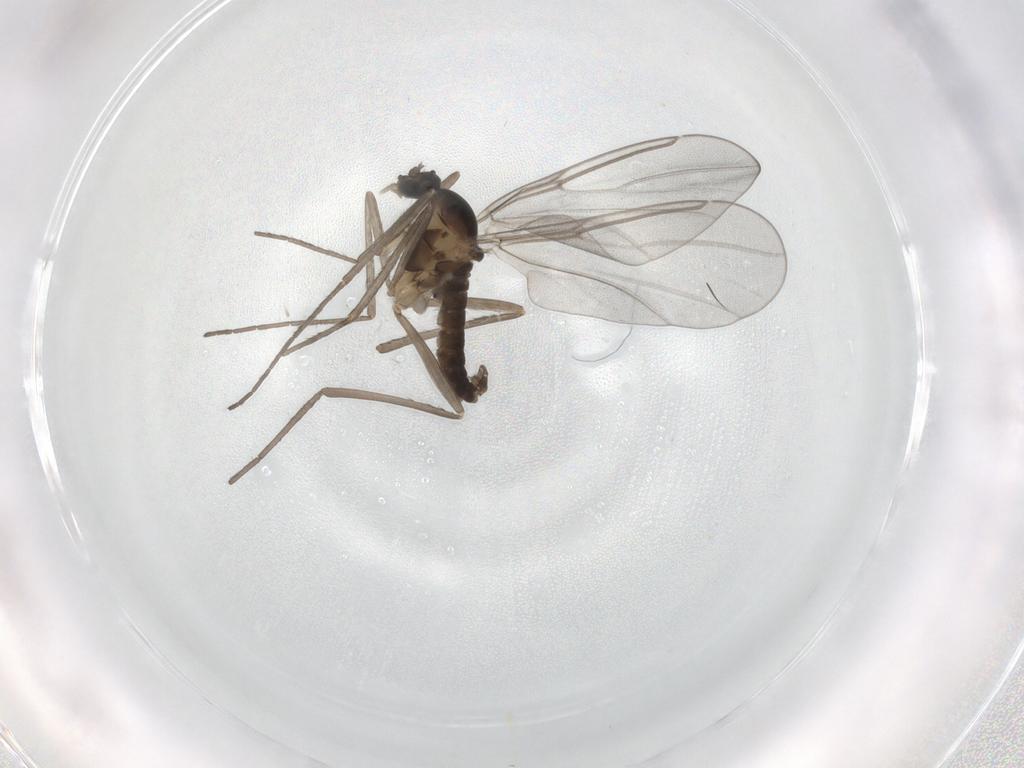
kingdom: Animalia
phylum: Arthropoda
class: Insecta
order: Diptera
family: Cecidomyiidae
